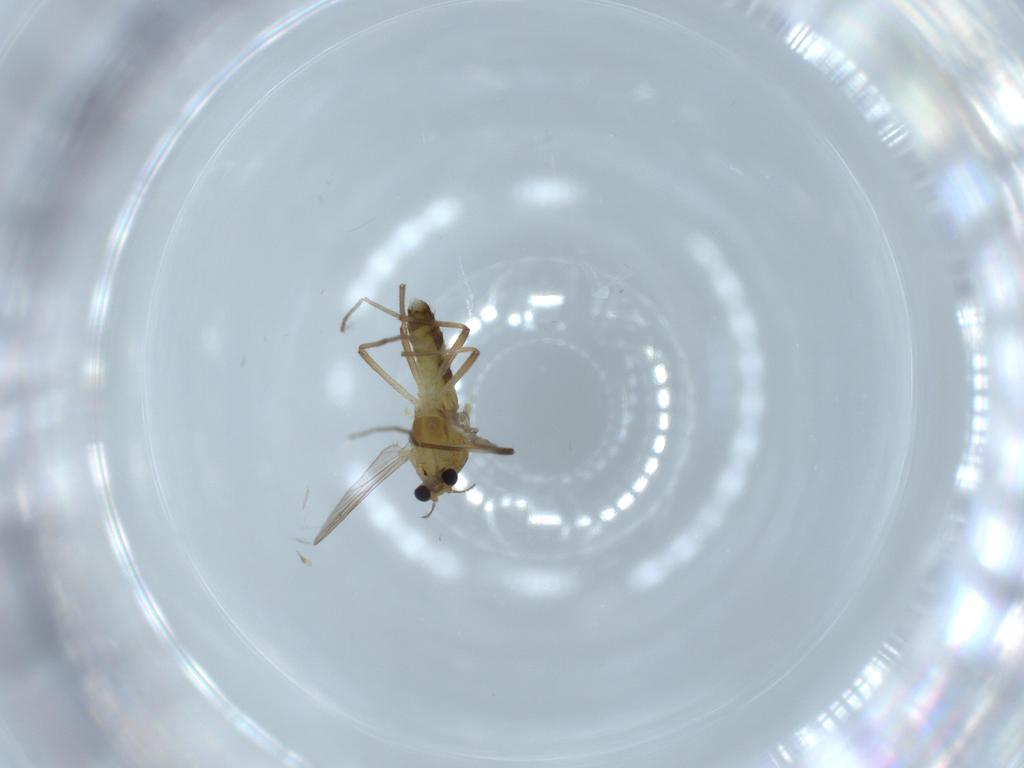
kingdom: Animalia
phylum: Arthropoda
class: Insecta
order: Diptera
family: Chironomidae
